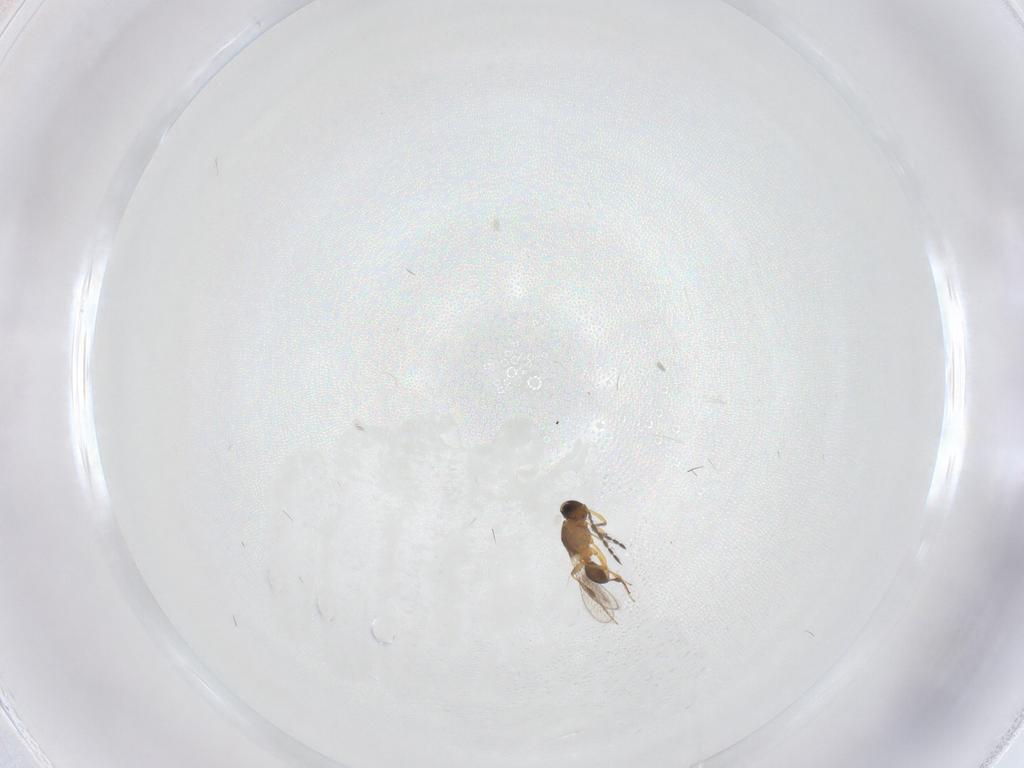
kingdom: Animalia
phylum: Arthropoda
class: Insecta
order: Hymenoptera
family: Platygastridae
